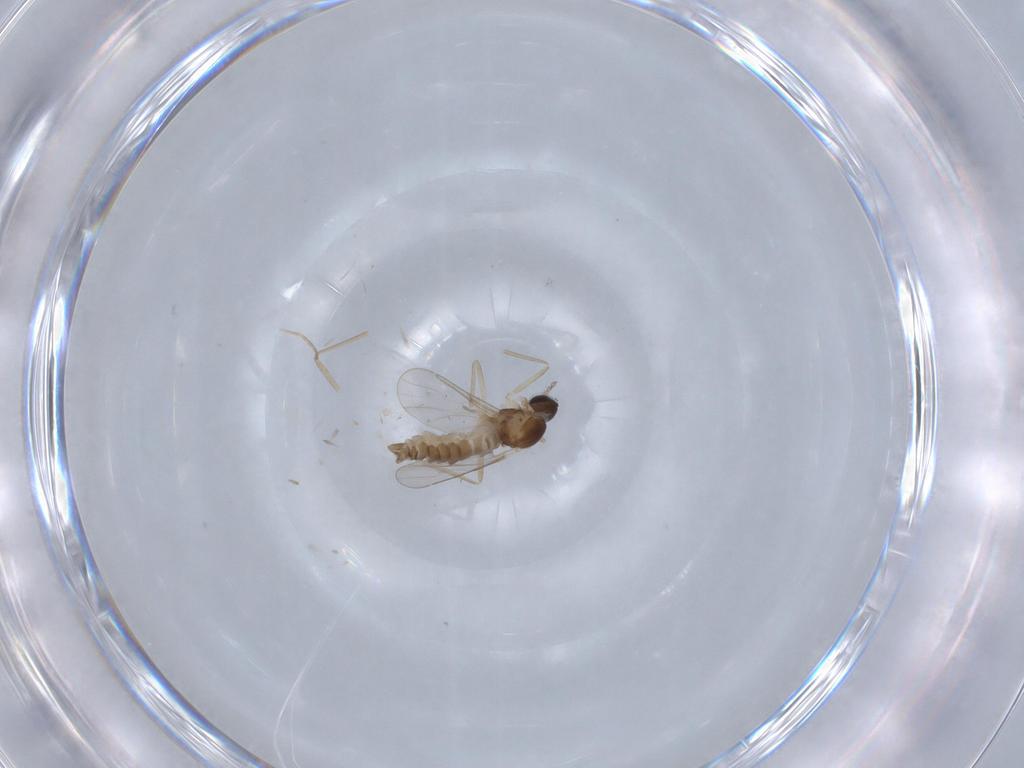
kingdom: Animalia
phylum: Arthropoda
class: Insecta
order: Diptera
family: Cecidomyiidae
